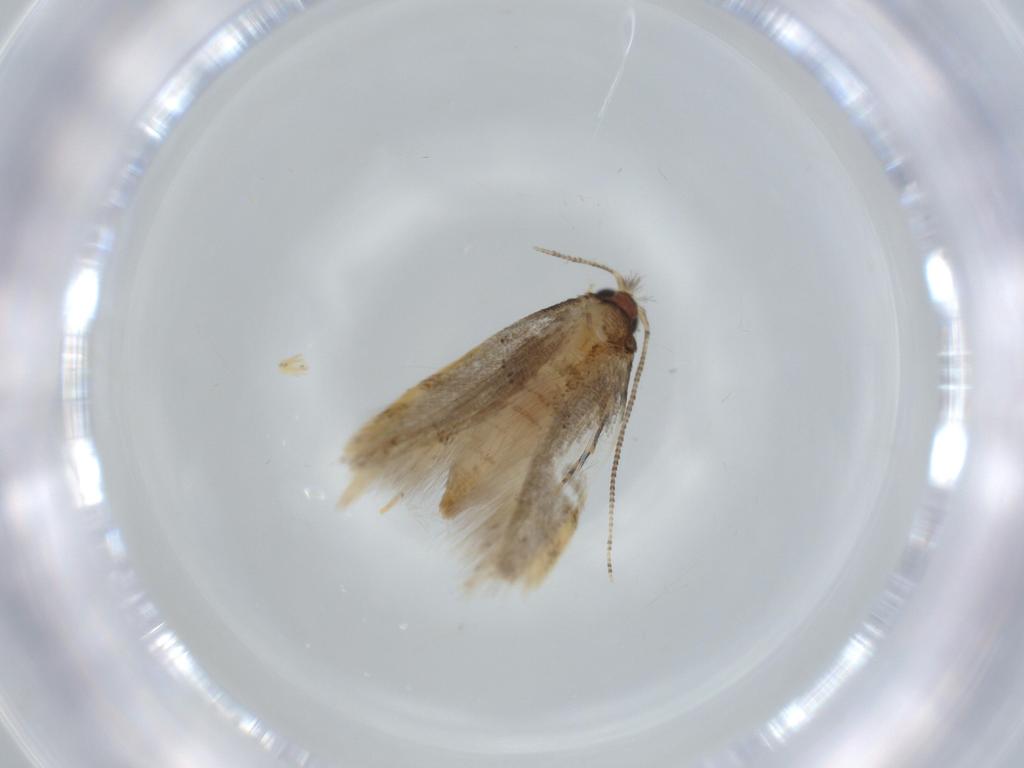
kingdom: Animalia
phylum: Arthropoda
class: Insecta
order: Lepidoptera
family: Tineidae
